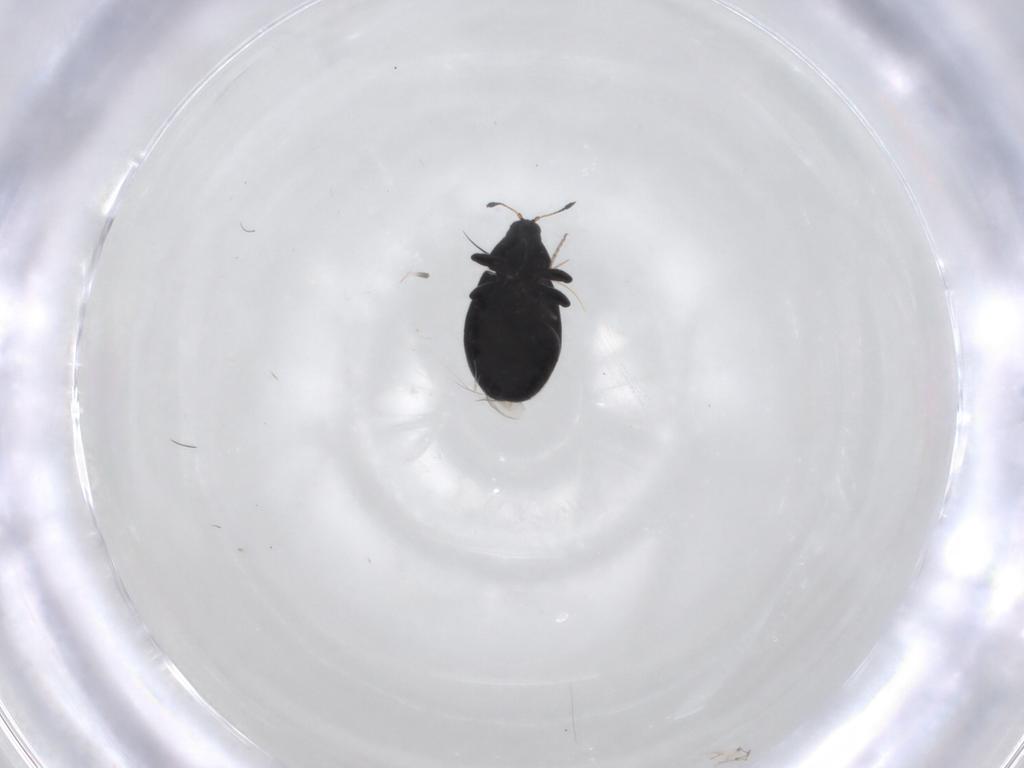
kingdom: Animalia
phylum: Arthropoda
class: Insecta
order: Coleoptera
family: Curculionidae
